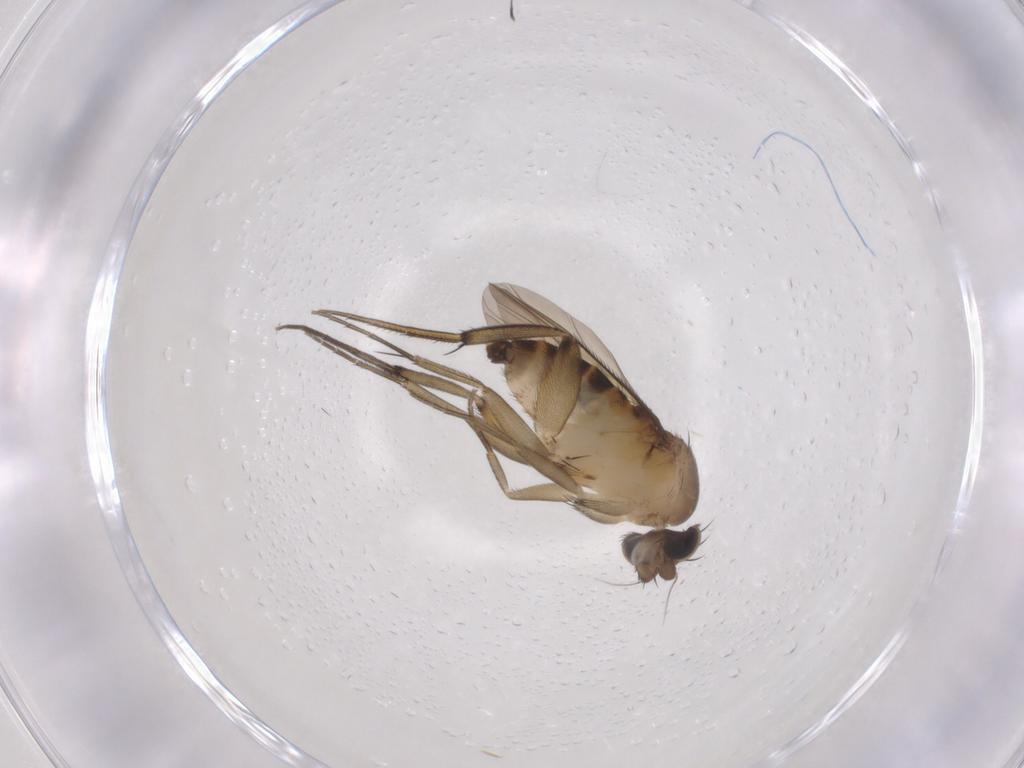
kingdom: Animalia
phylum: Arthropoda
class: Insecta
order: Diptera
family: Phoridae
